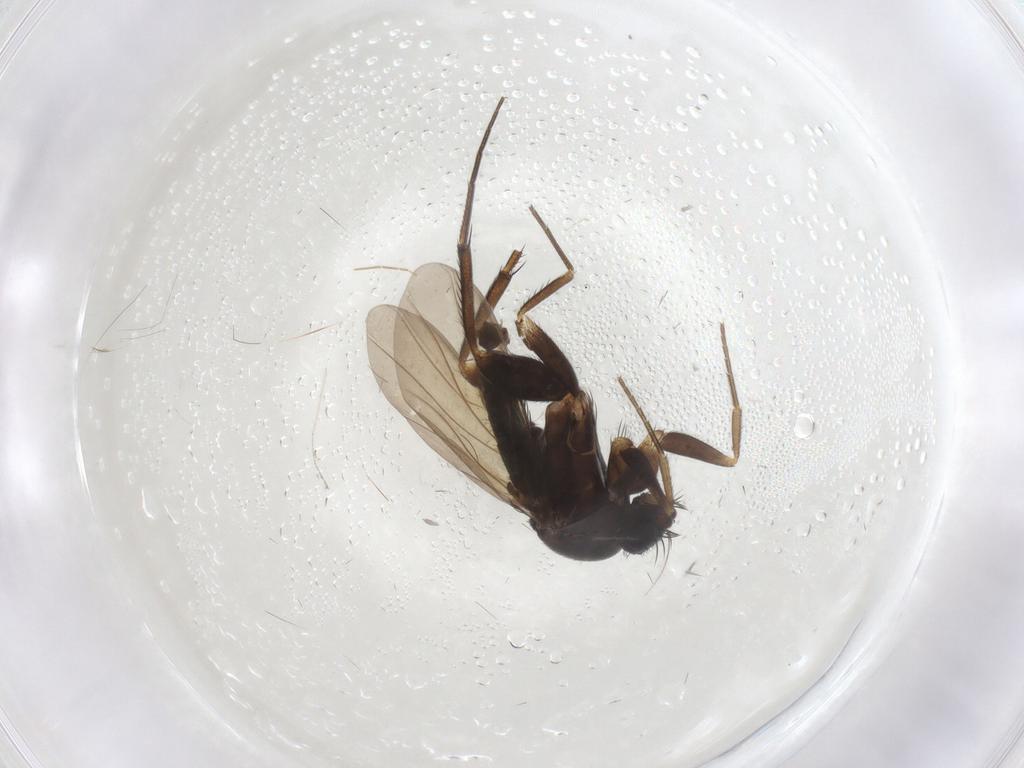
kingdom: Animalia
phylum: Arthropoda
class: Insecta
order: Diptera
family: Phoridae
